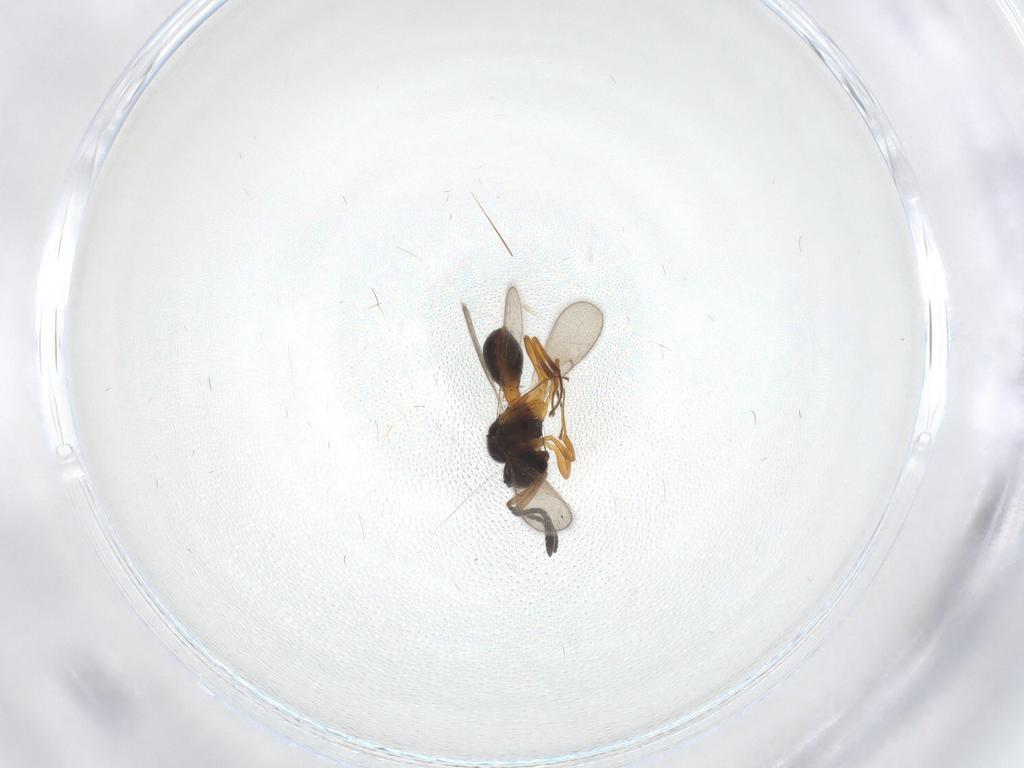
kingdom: Animalia
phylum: Arthropoda
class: Insecta
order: Hymenoptera
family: Scelionidae
